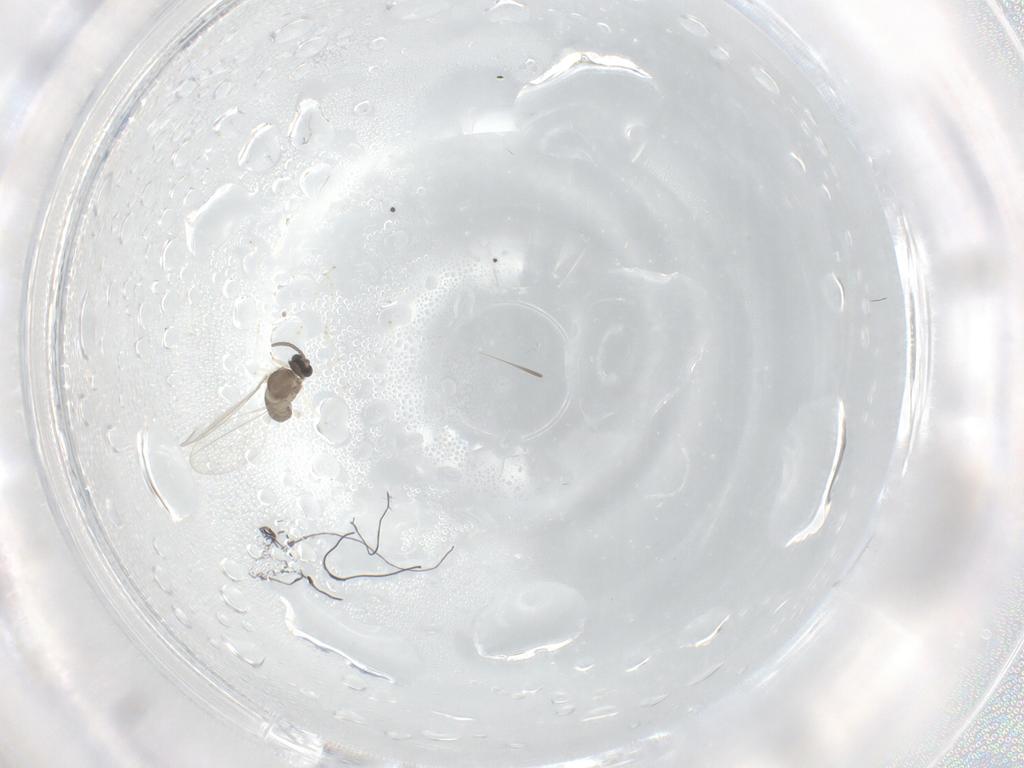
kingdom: Animalia
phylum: Arthropoda
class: Insecta
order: Diptera
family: Cecidomyiidae
